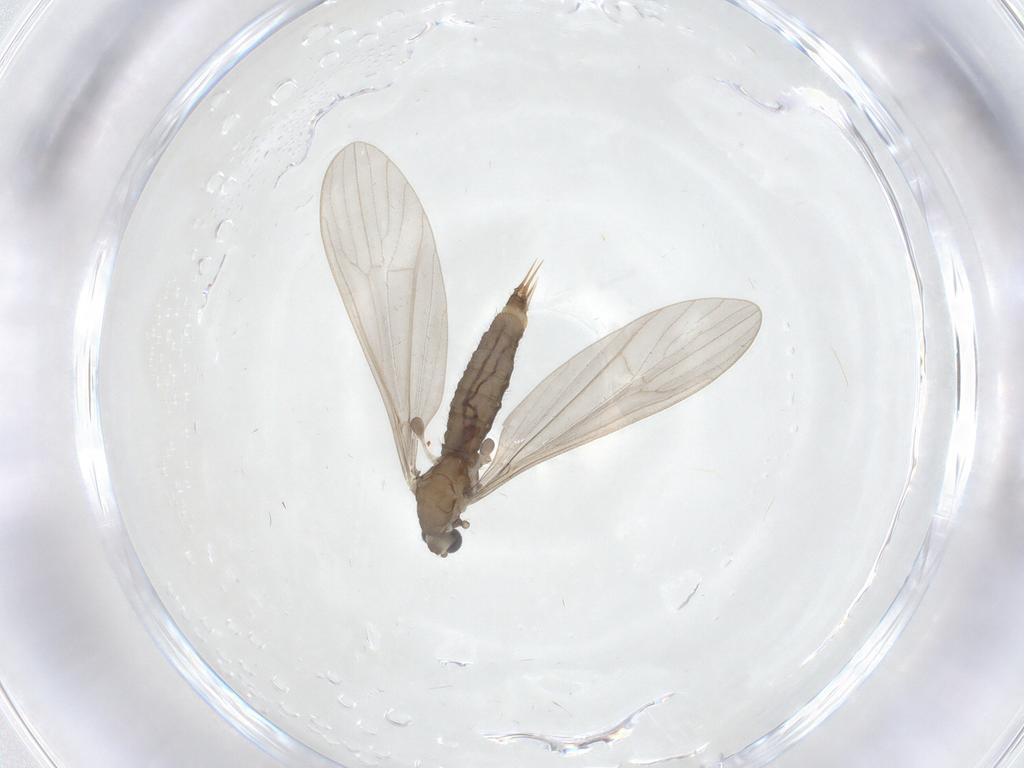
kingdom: Animalia
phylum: Arthropoda
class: Insecta
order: Diptera
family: Limoniidae
